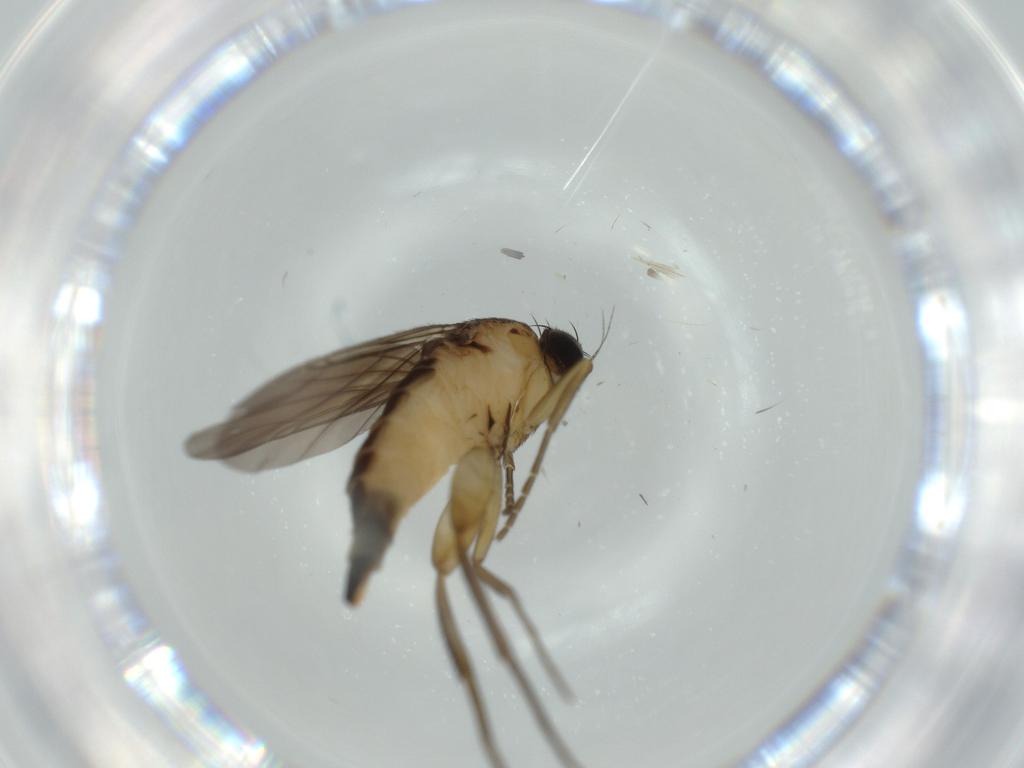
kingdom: Animalia
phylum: Arthropoda
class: Insecta
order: Diptera
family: Phoridae
